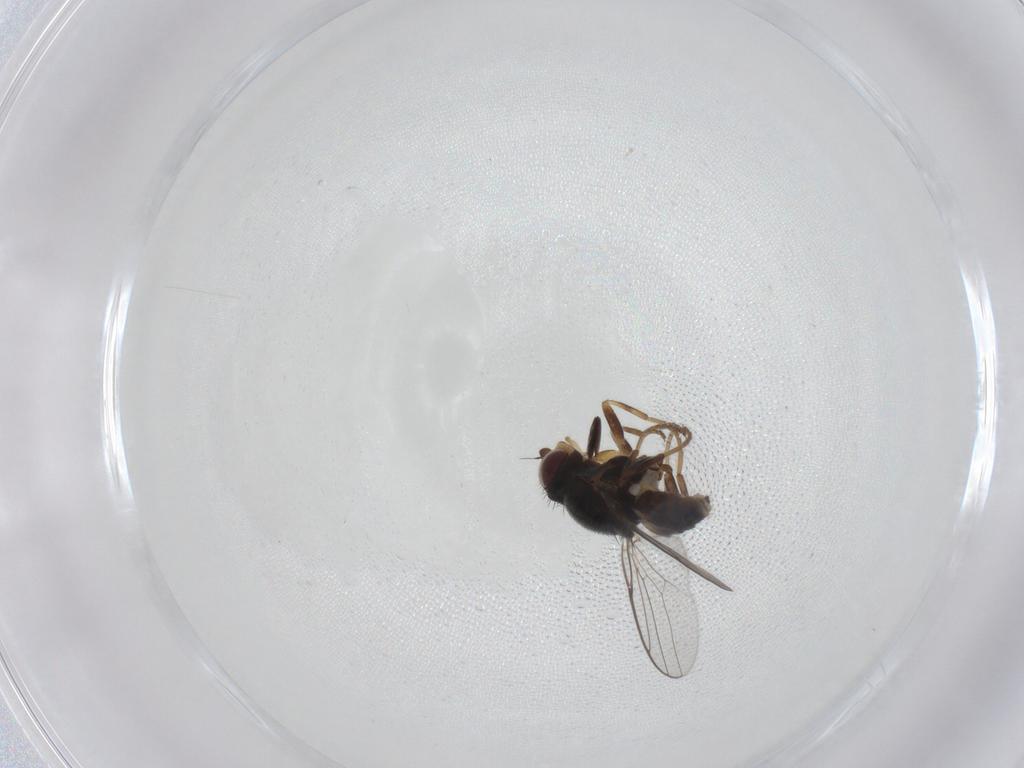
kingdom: Animalia
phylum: Arthropoda
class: Insecta
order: Diptera
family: Chloropidae
